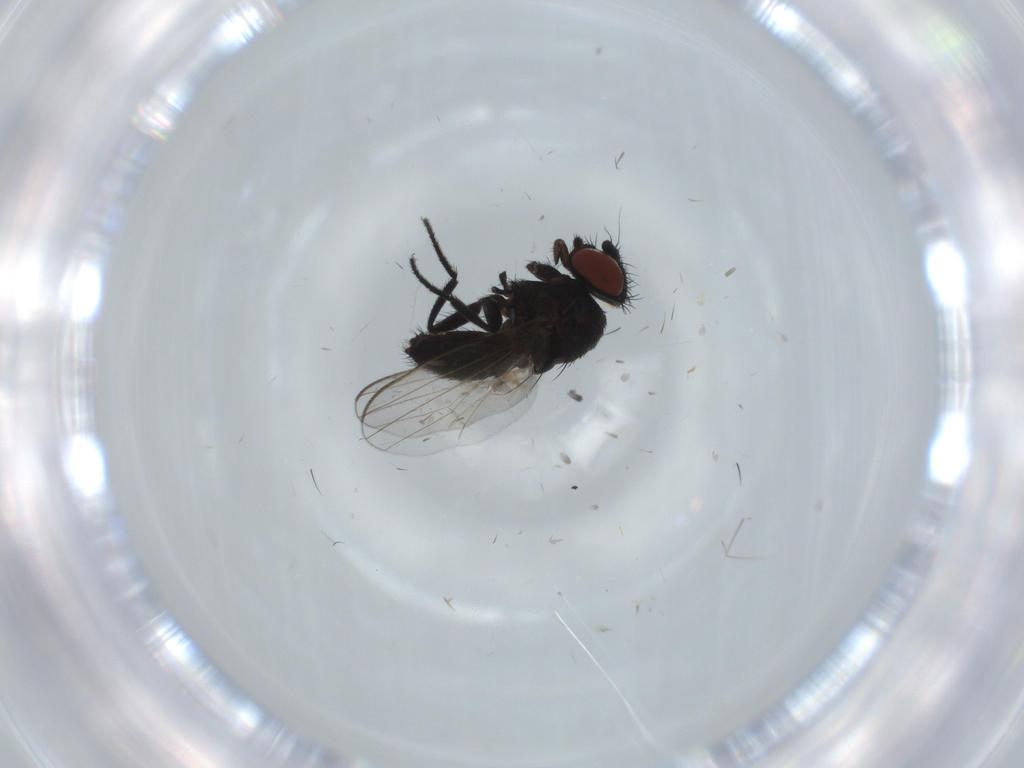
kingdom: Animalia
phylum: Arthropoda
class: Insecta
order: Diptera
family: Ceratopogonidae
